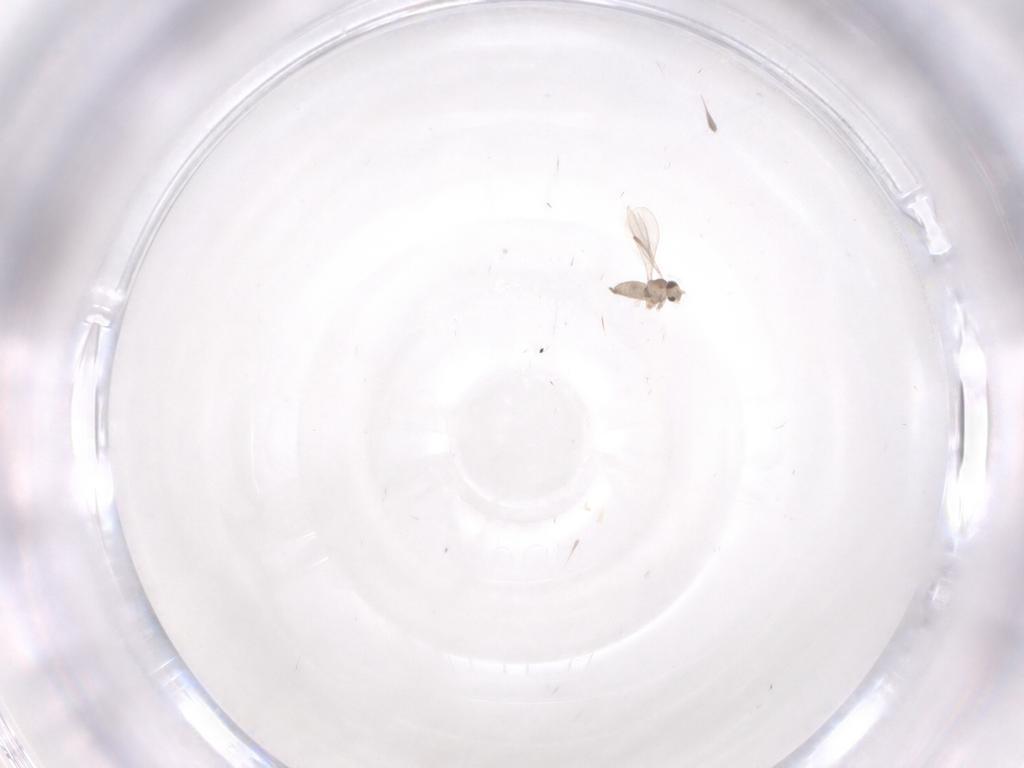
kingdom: Animalia
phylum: Arthropoda
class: Insecta
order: Diptera
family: Cecidomyiidae
